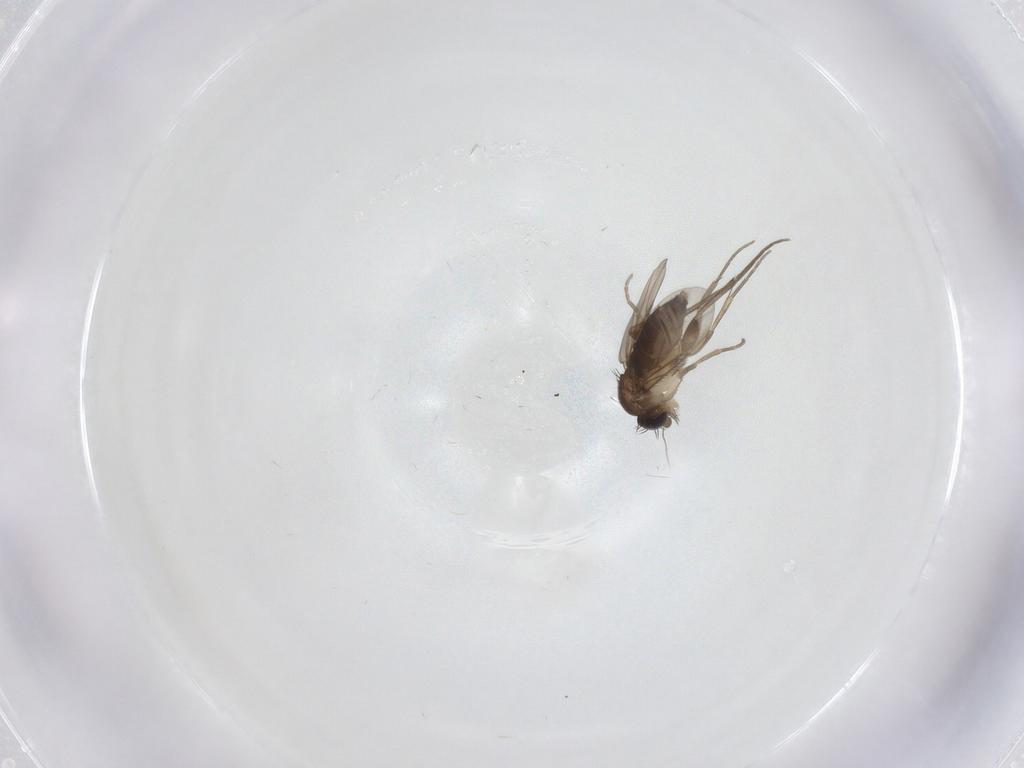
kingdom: Animalia
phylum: Arthropoda
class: Insecta
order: Diptera
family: Phoridae
